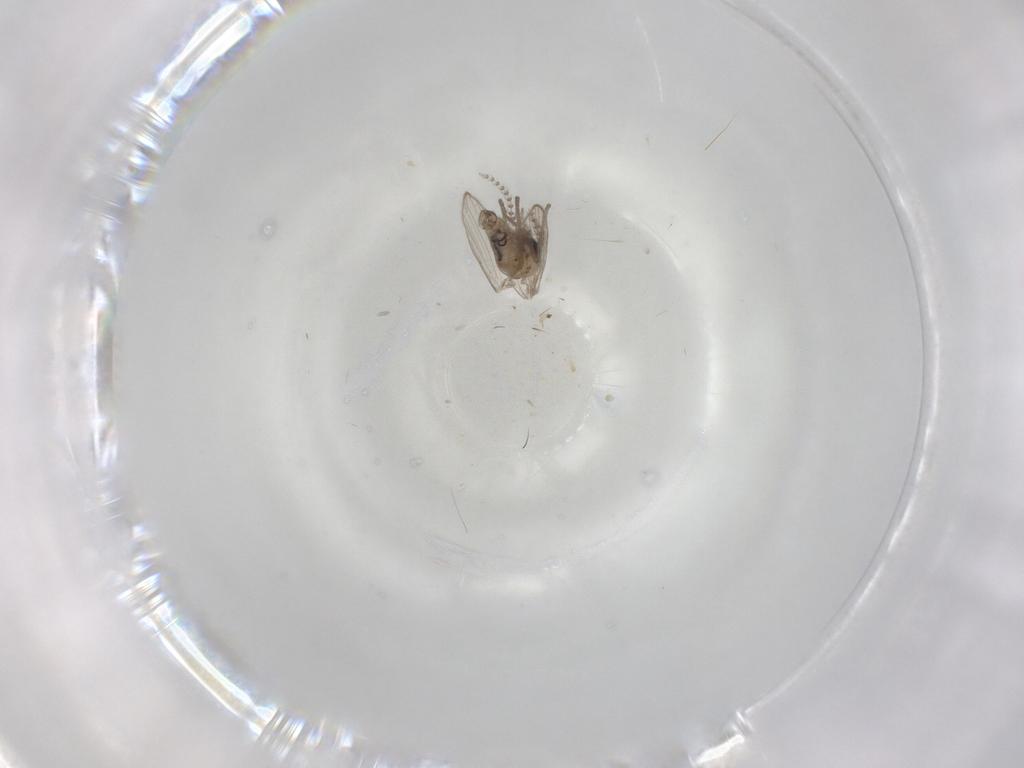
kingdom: Animalia
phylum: Arthropoda
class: Insecta
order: Diptera
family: Psychodidae
